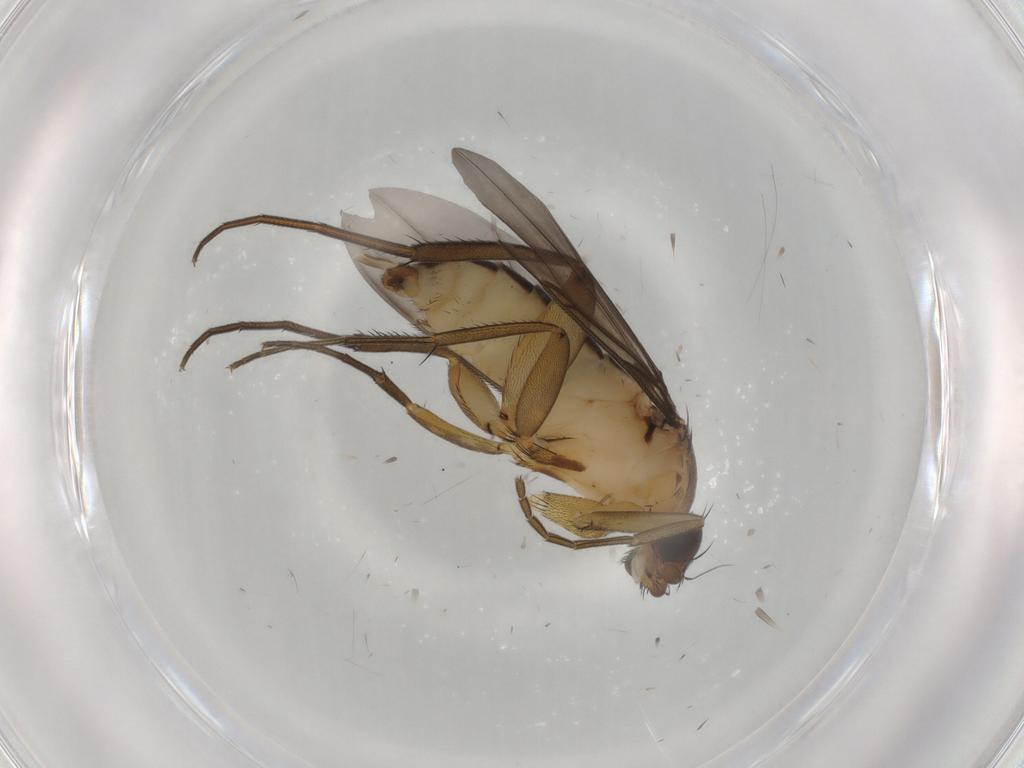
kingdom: Animalia
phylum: Arthropoda
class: Insecta
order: Diptera
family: Phoridae
